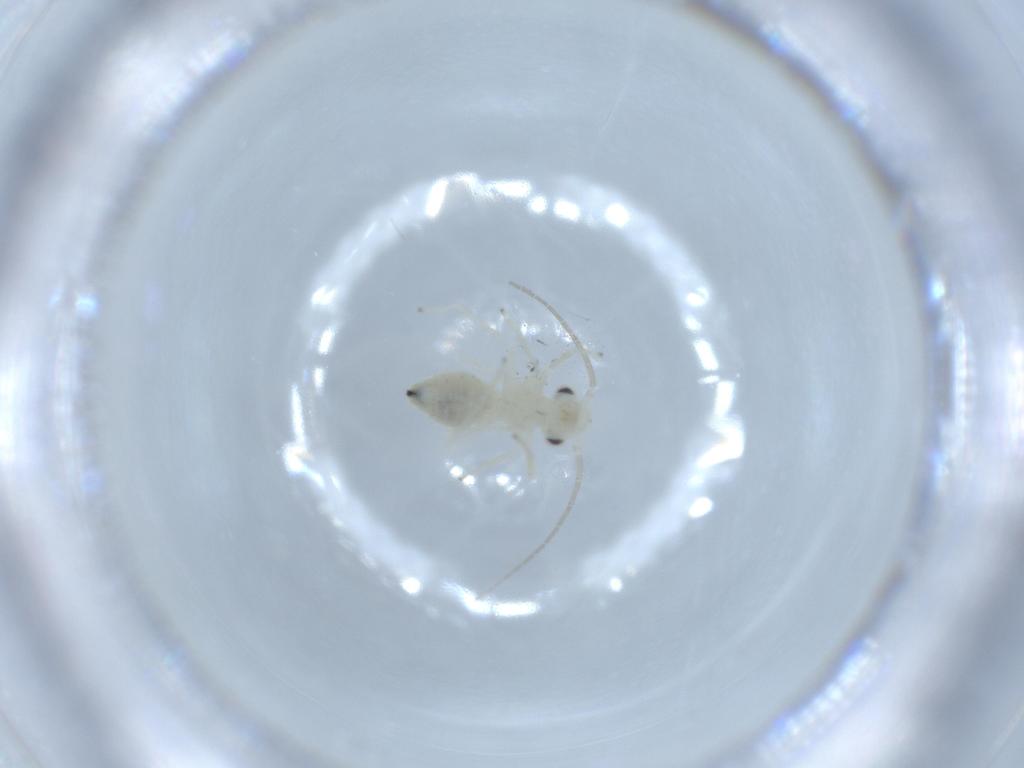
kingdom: Animalia
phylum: Arthropoda
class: Insecta
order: Psocodea
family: Caeciliusidae
